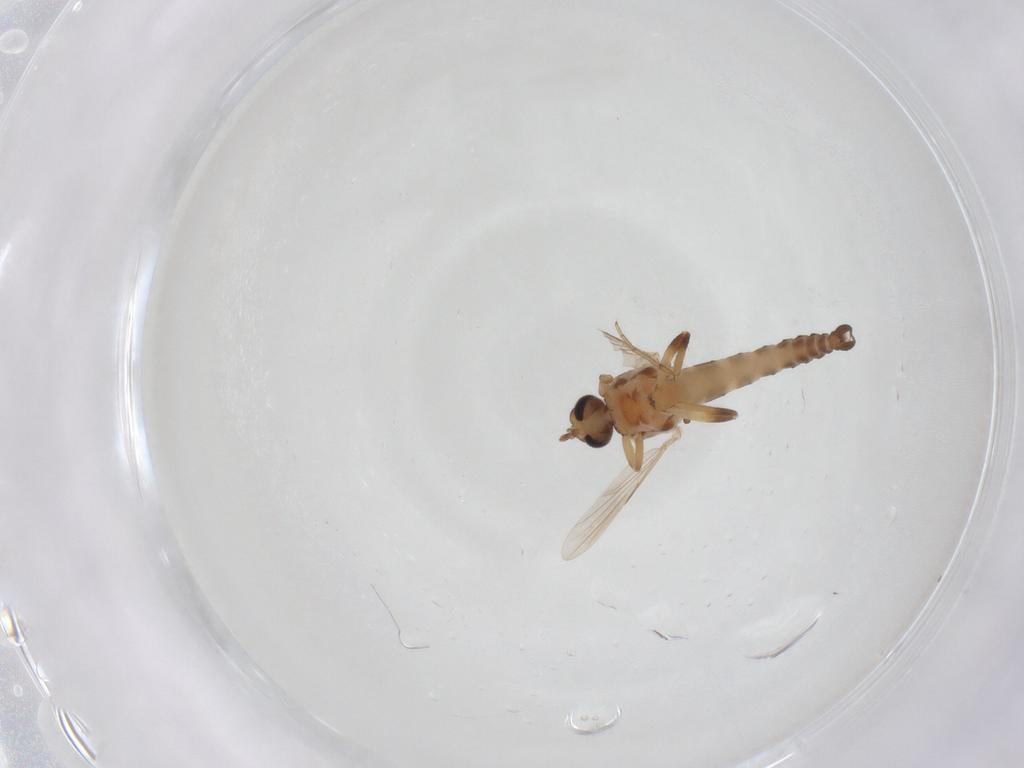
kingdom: Animalia
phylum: Arthropoda
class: Insecta
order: Diptera
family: Ceratopogonidae
